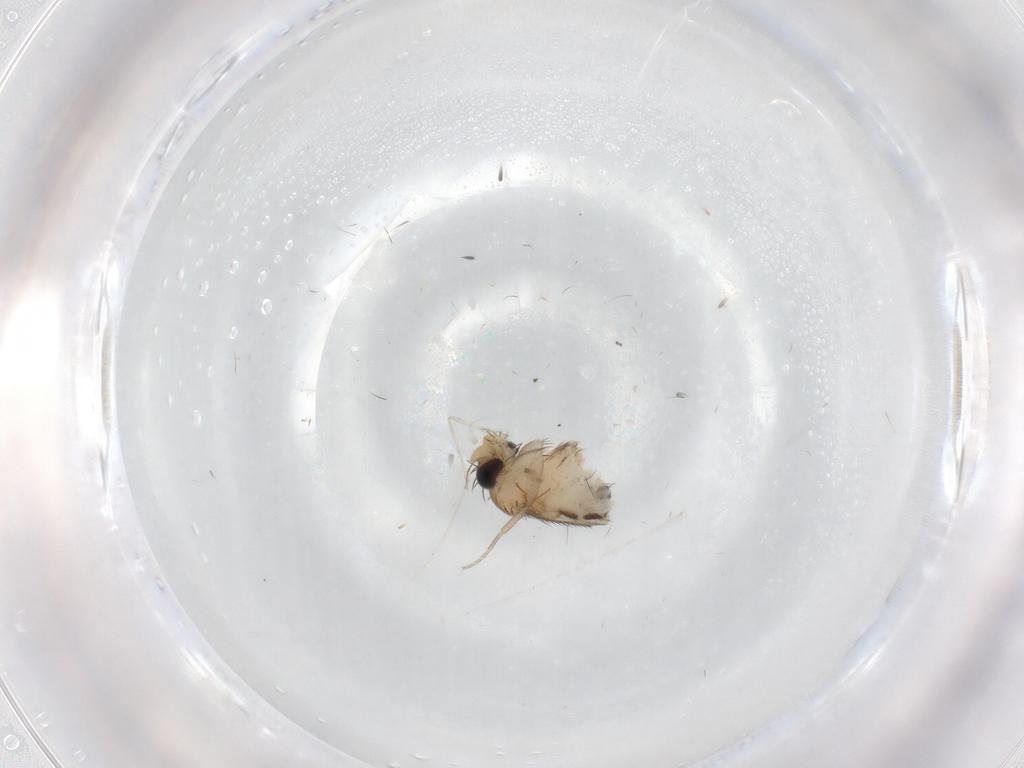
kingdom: Animalia
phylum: Arthropoda
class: Insecta
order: Diptera
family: Phoridae
